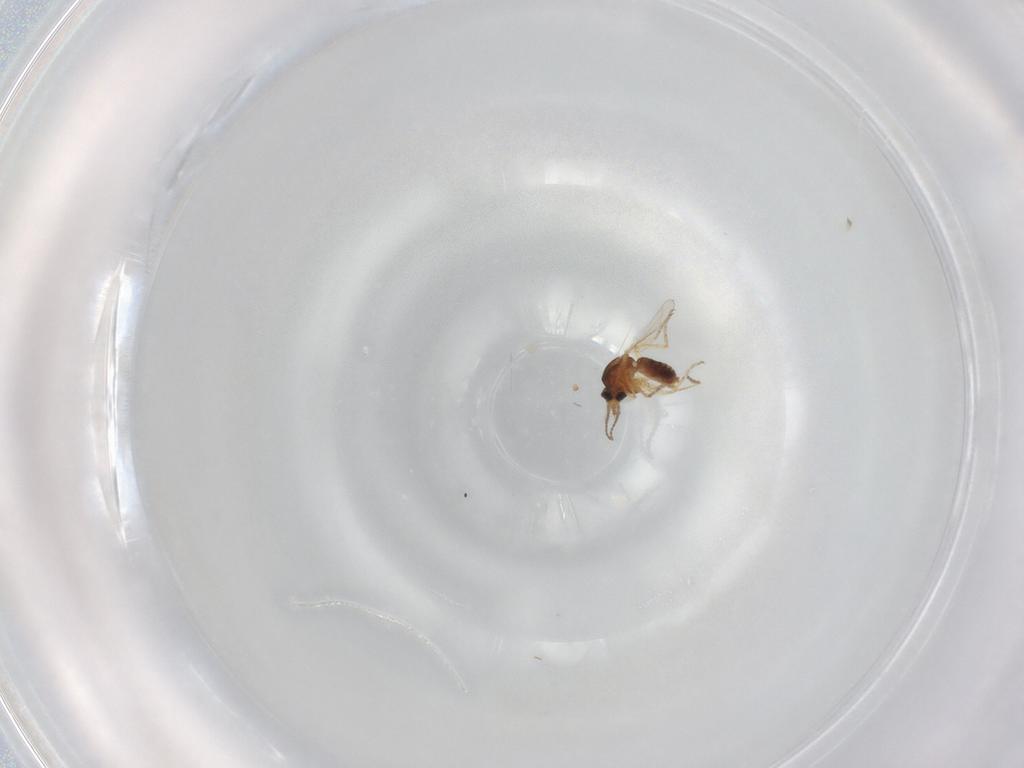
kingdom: Animalia
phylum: Arthropoda
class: Insecta
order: Diptera
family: Ceratopogonidae
